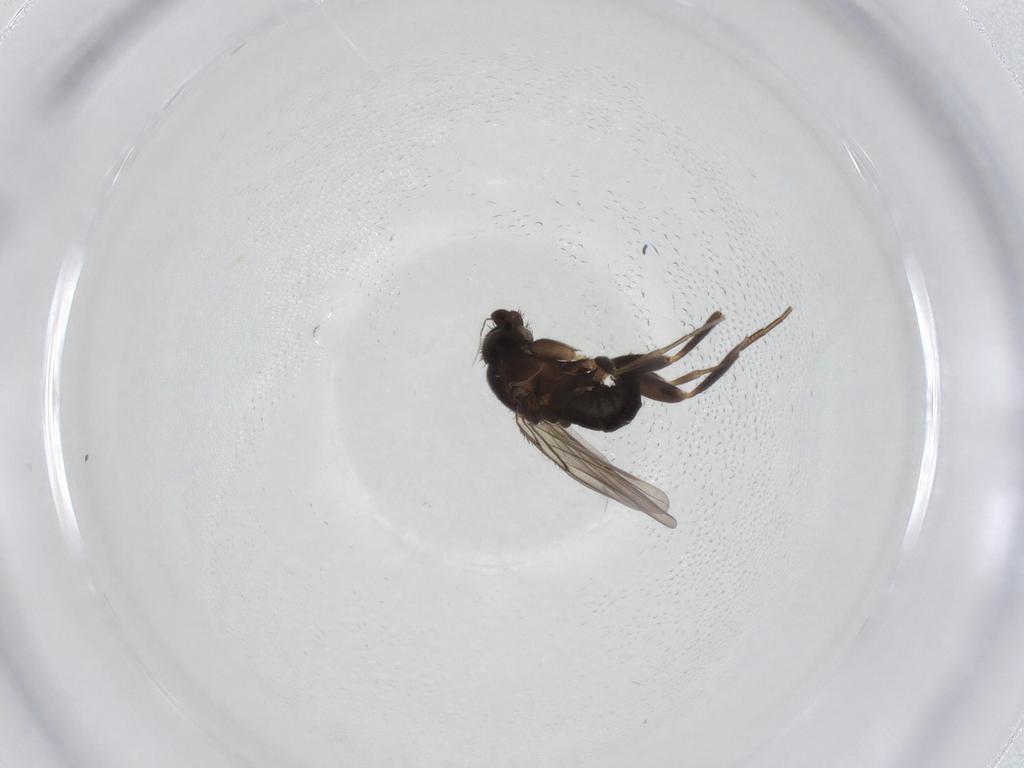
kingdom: Animalia
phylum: Arthropoda
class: Insecta
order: Diptera
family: Phoridae
